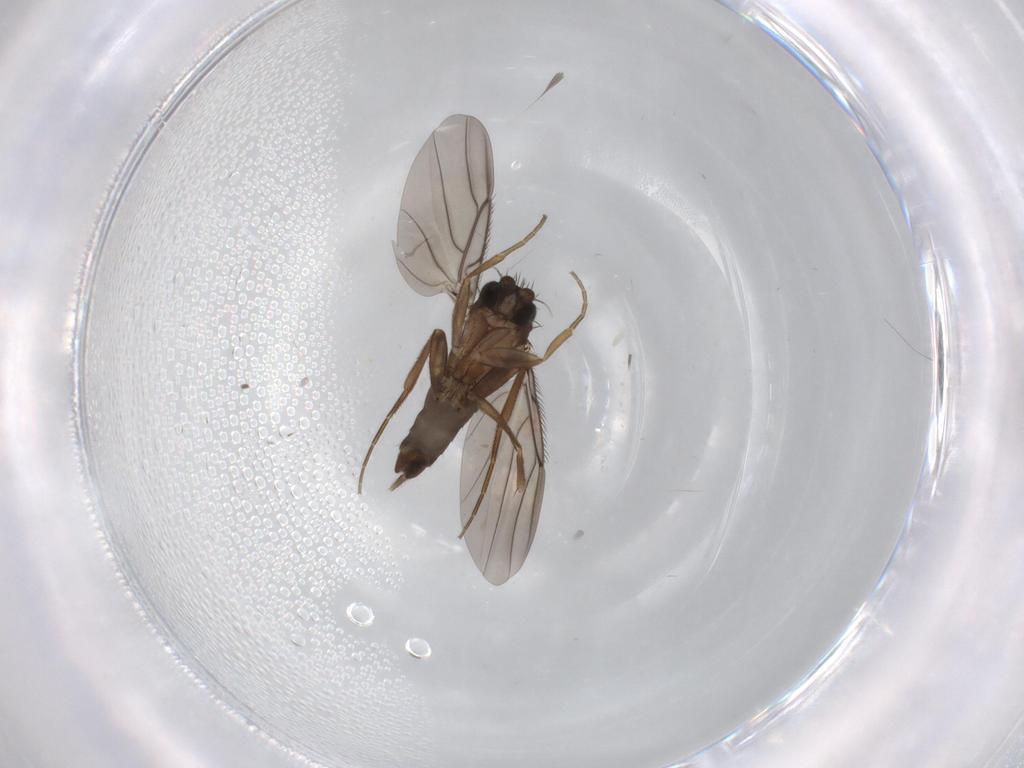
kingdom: Animalia
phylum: Arthropoda
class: Insecta
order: Diptera
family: Phoridae
